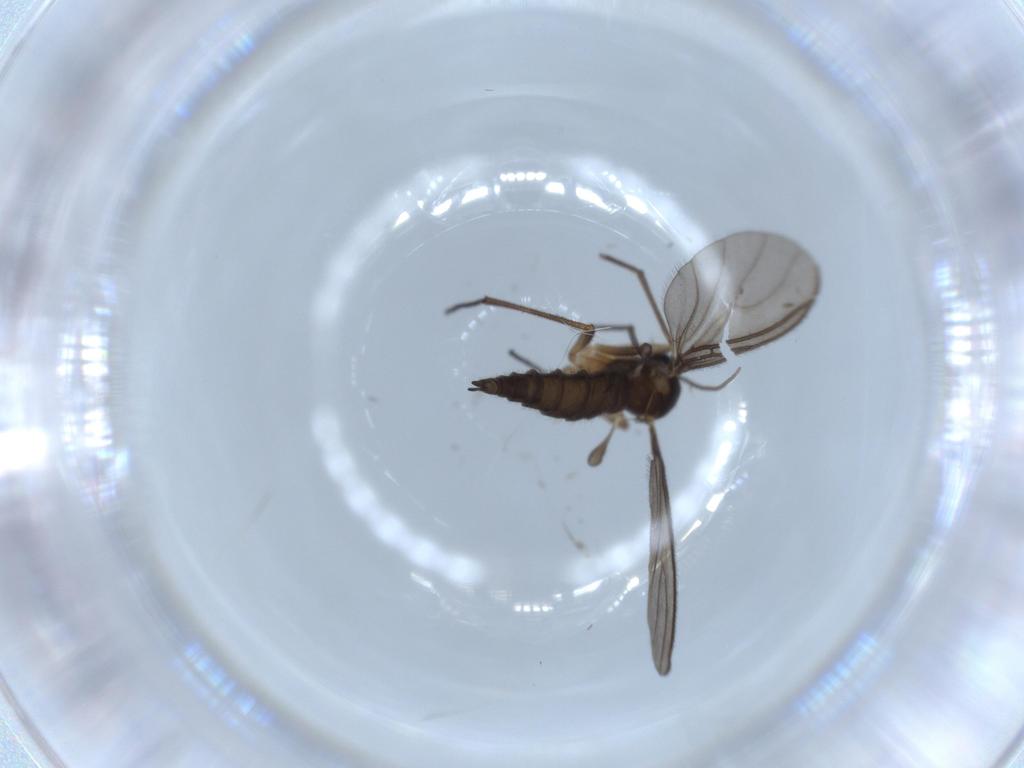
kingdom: Animalia
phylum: Arthropoda
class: Insecta
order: Diptera
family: Sciaridae
